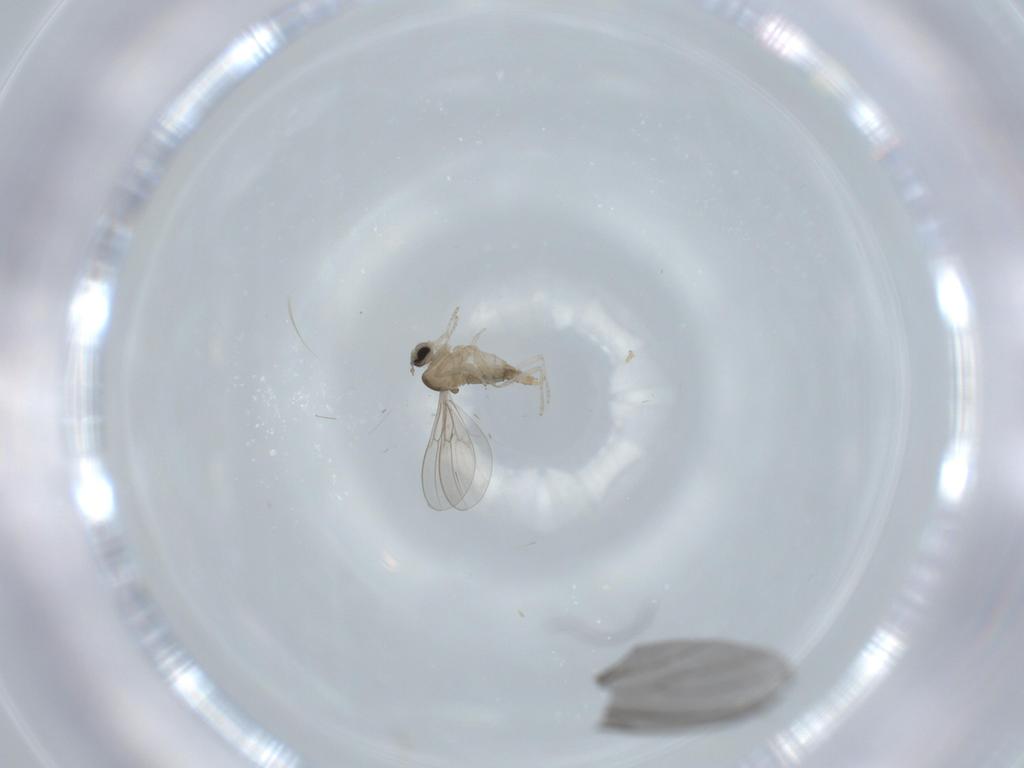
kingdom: Animalia
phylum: Arthropoda
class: Insecta
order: Diptera
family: Cecidomyiidae
